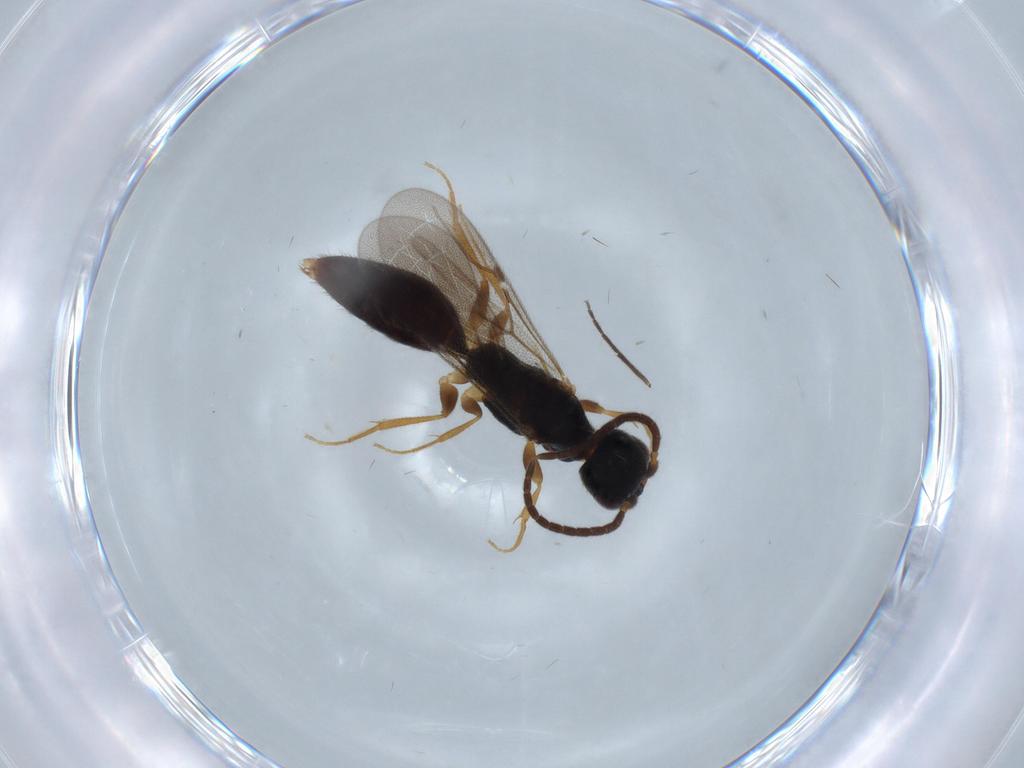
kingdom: Animalia
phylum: Arthropoda
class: Insecta
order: Hymenoptera
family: Bethylidae
